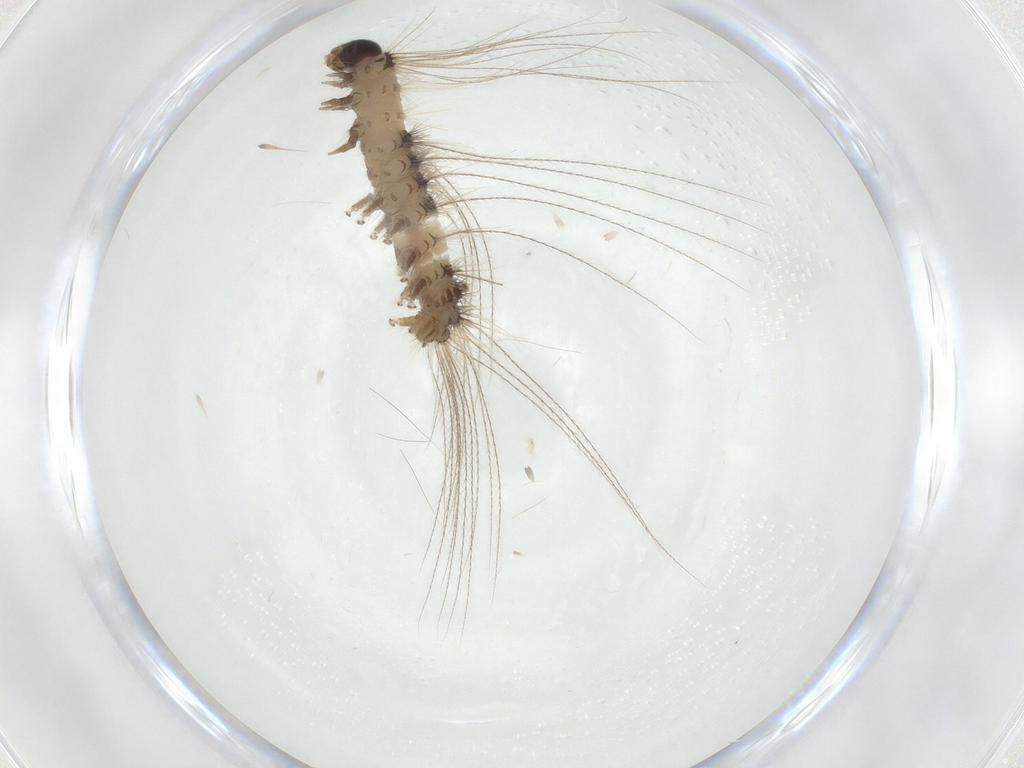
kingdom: Animalia
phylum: Arthropoda
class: Insecta
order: Lepidoptera
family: Erebidae
